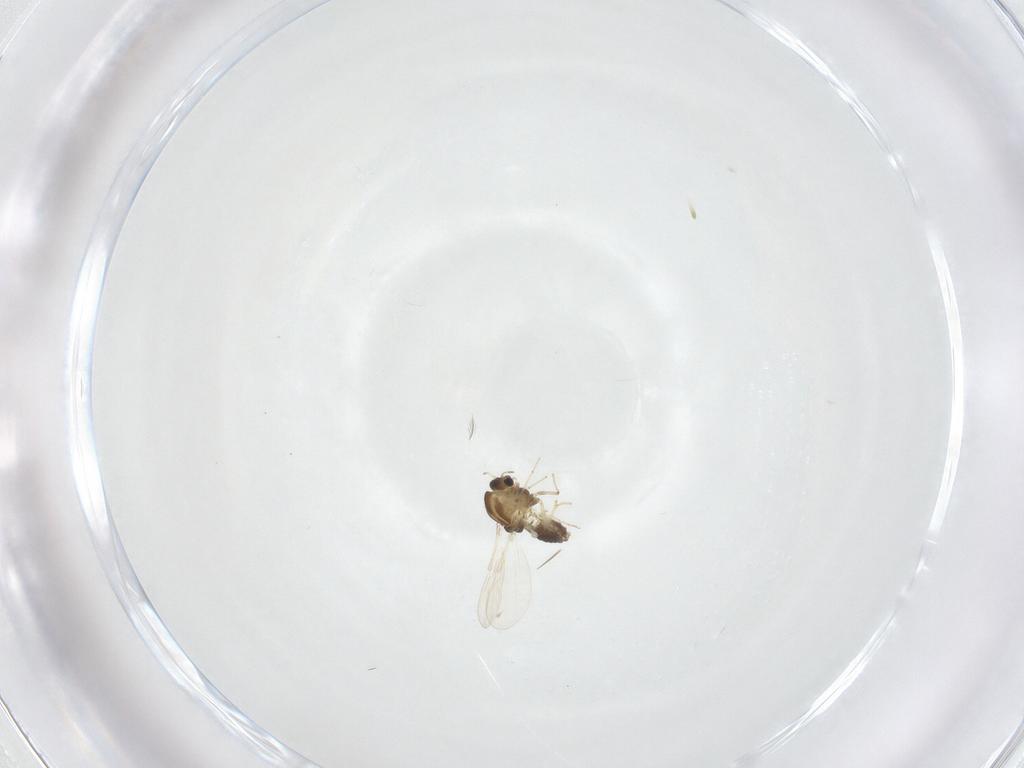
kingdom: Animalia
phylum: Arthropoda
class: Insecta
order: Diptera
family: Chironomidae
